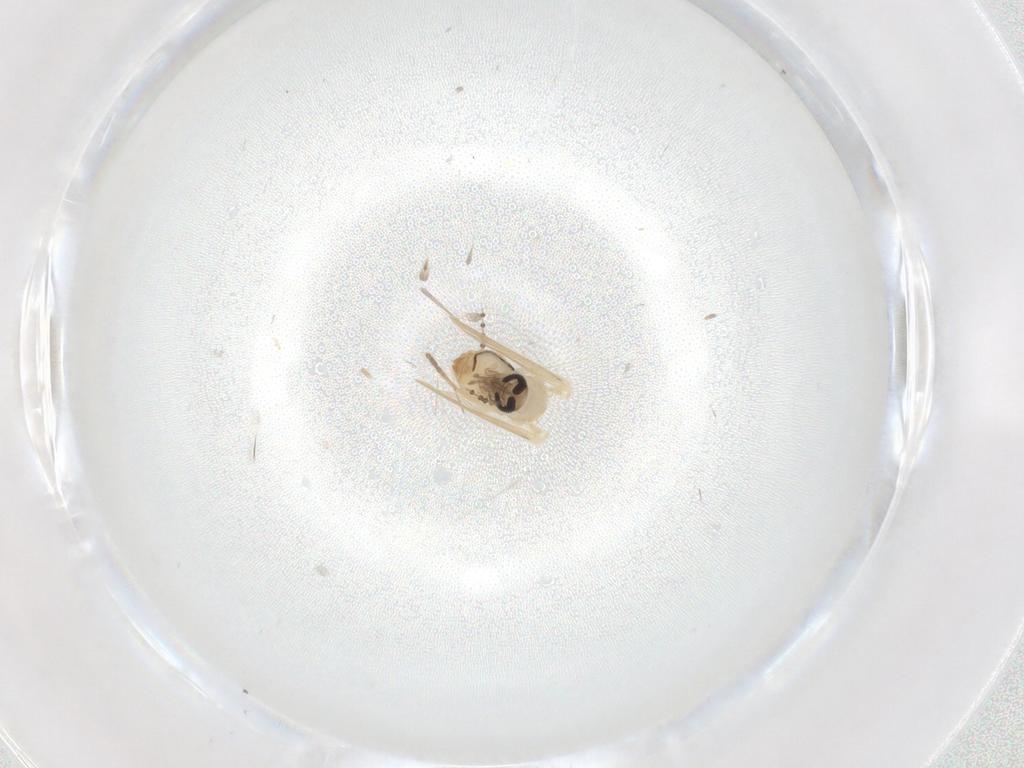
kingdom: Animalia
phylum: Arthropoda
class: Insecta
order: Diptera
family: Psychodidae
